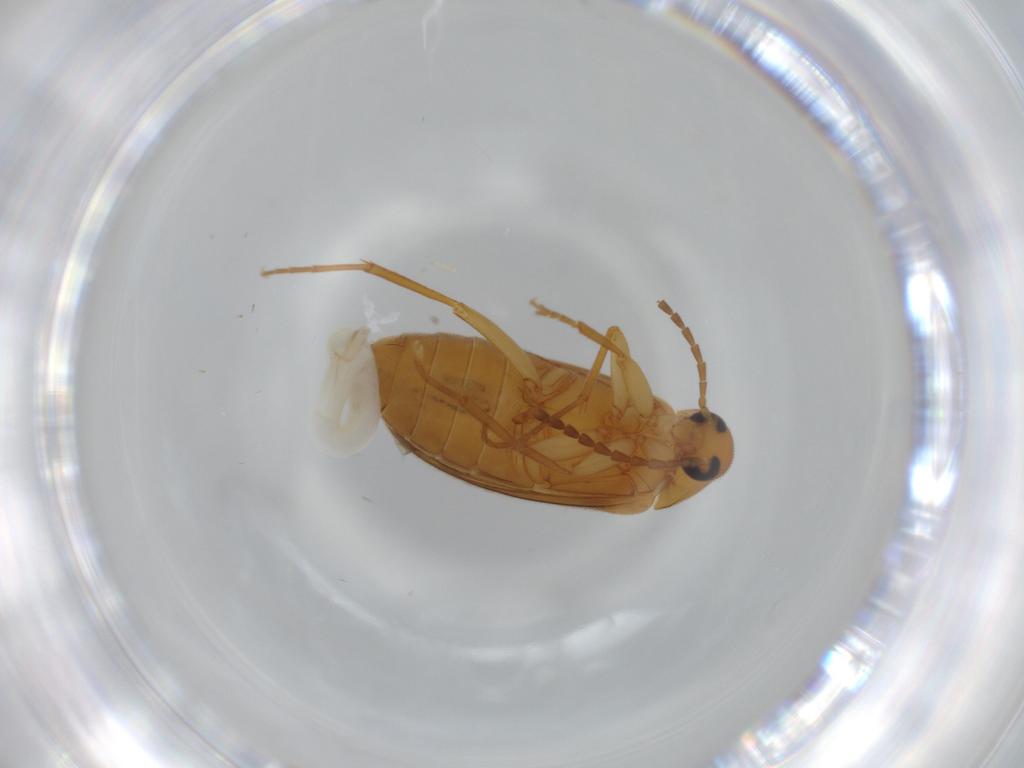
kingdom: Animalia
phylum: Arthropoda
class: Insecta
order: Coleoptera
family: Scraptiidae
